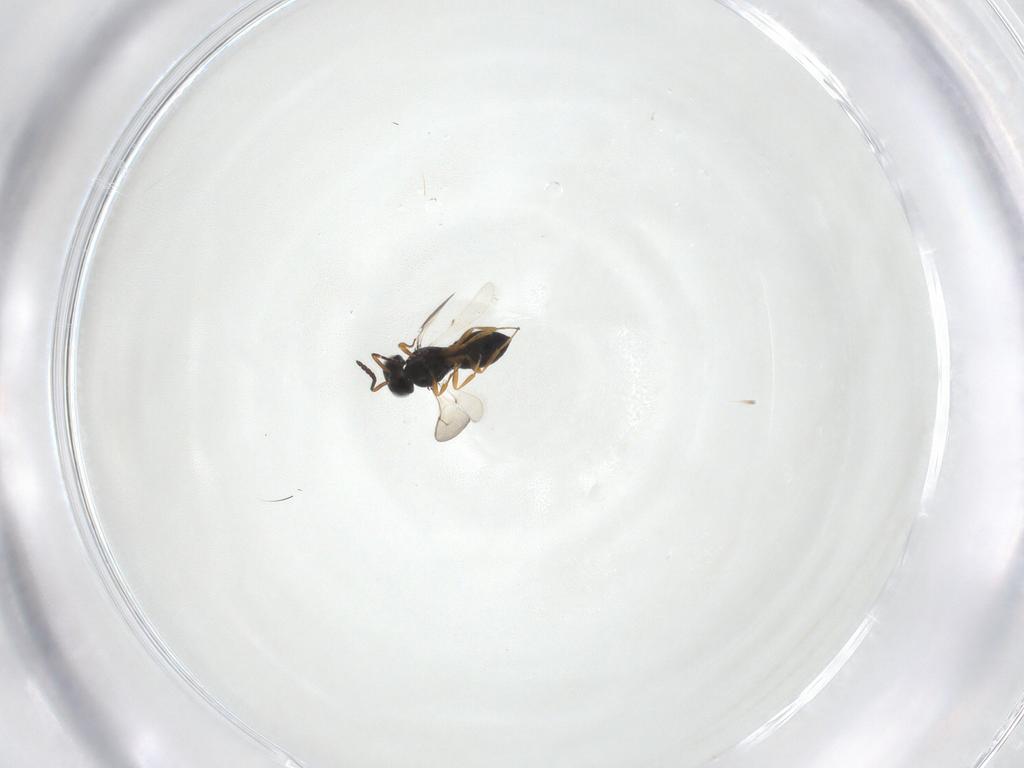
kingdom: Animalia
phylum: Arthropoda
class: Insecta
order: Hymenoptera
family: Scelionidae
